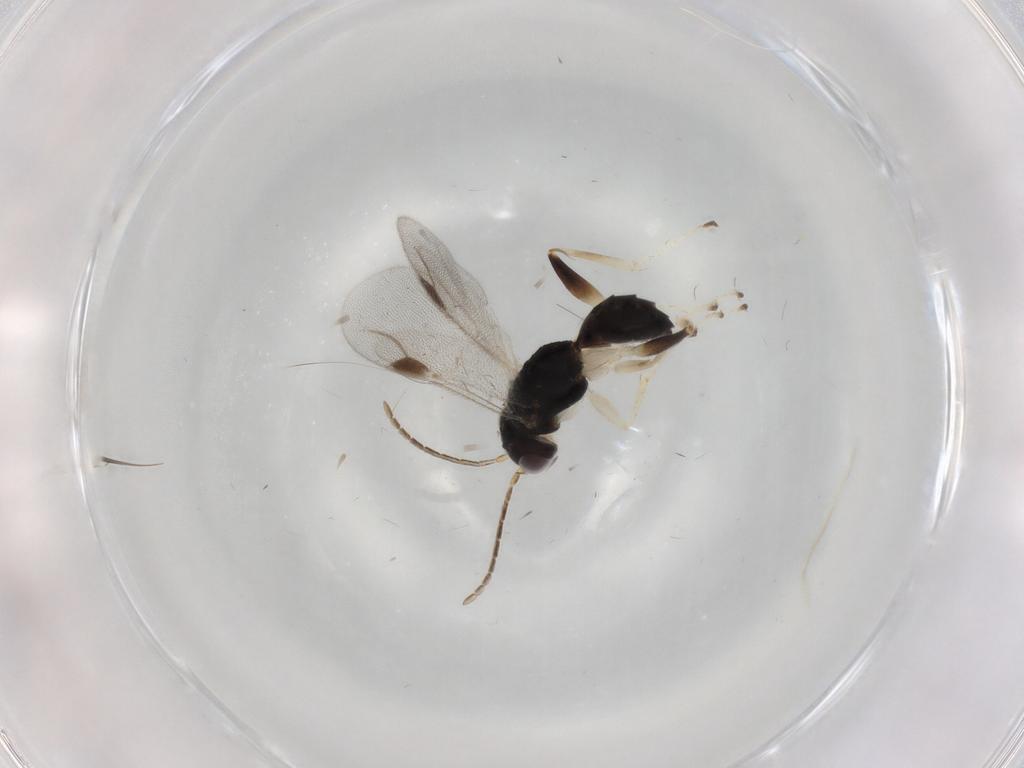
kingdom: Animalia
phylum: Arthropoda
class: Insecta
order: Hymenoptera
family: Dryinidae
